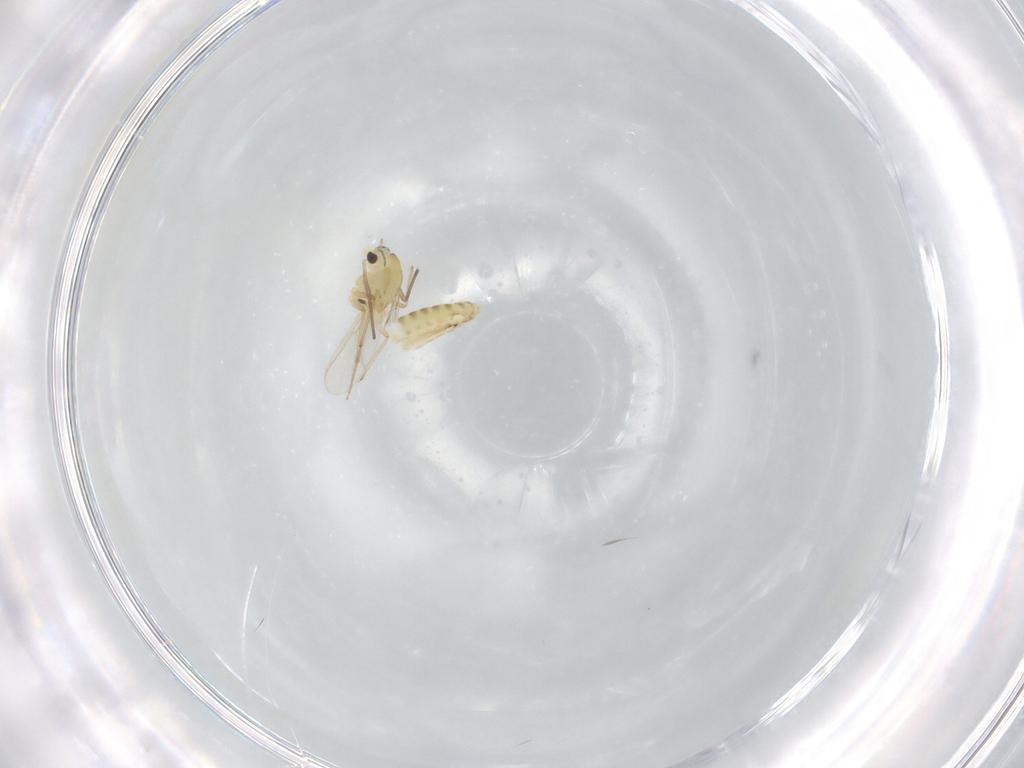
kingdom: Animalia
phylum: Arthropoda
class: Insecta
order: Diptera
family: Chironomidae
